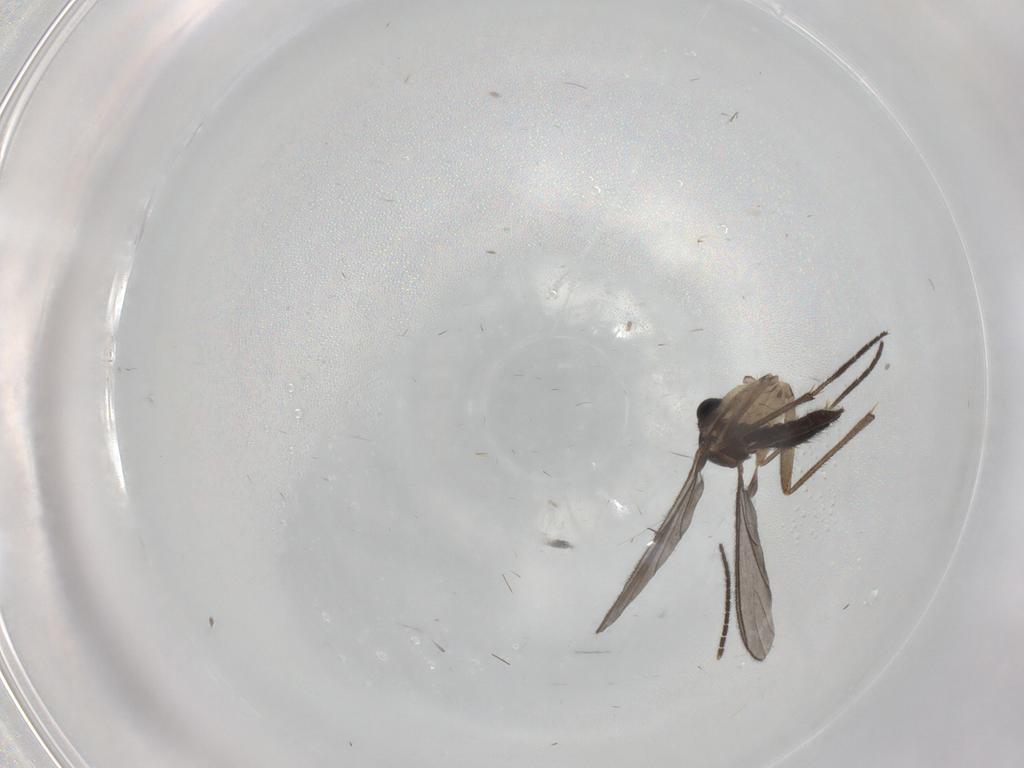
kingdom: Animalia
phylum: Arthropoda
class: Insecta
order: Diptera
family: Sciaridae
